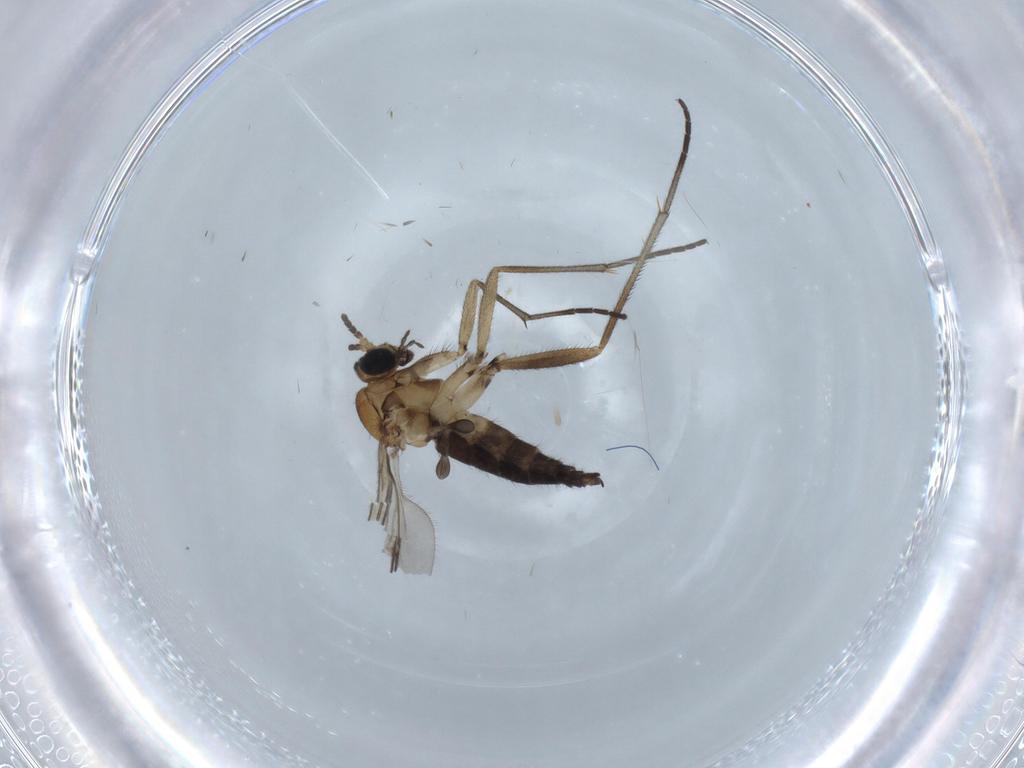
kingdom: Animalia
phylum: Arthropoda
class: Insecta
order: Diptera
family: Sciaridae
